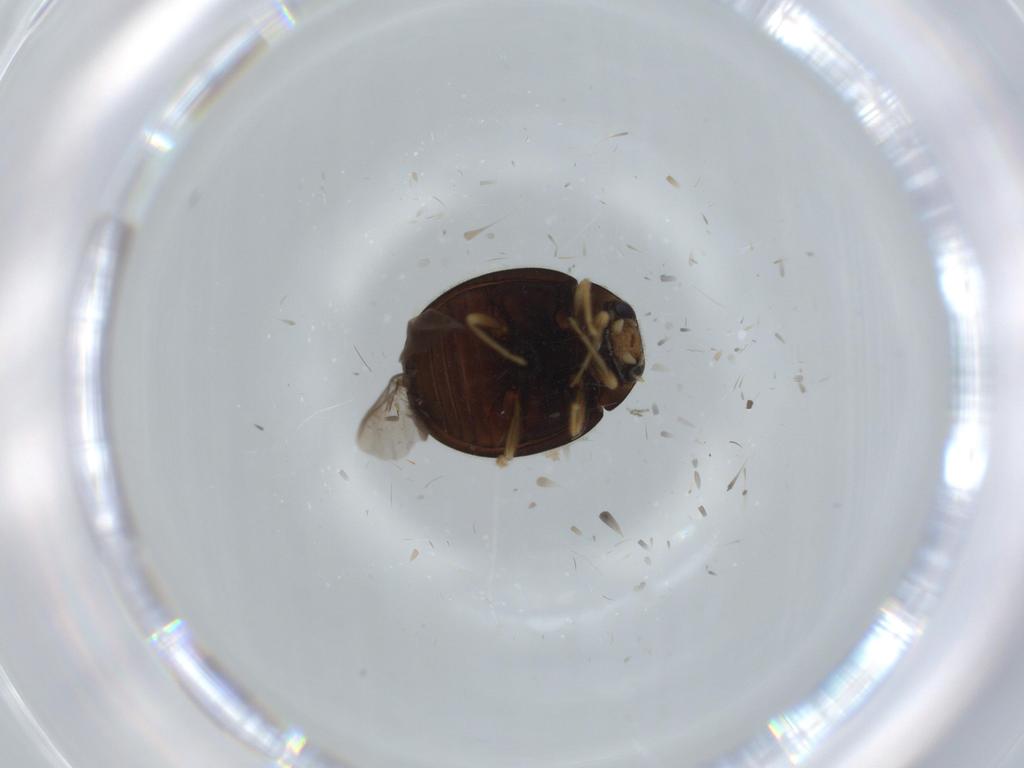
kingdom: Animalia
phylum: Arthropoda
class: Insecta
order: Coleoptera
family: Coccinellidae
